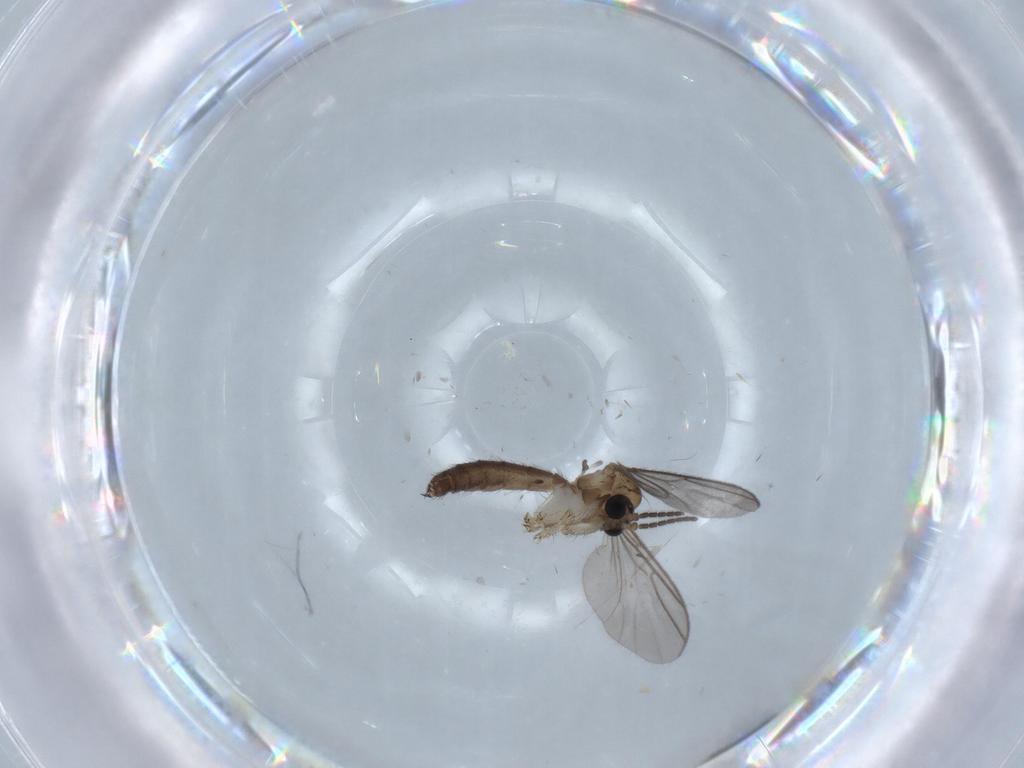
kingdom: Animalia
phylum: Arthropoda
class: Insecta
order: Diptera
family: Mycetophilidae
